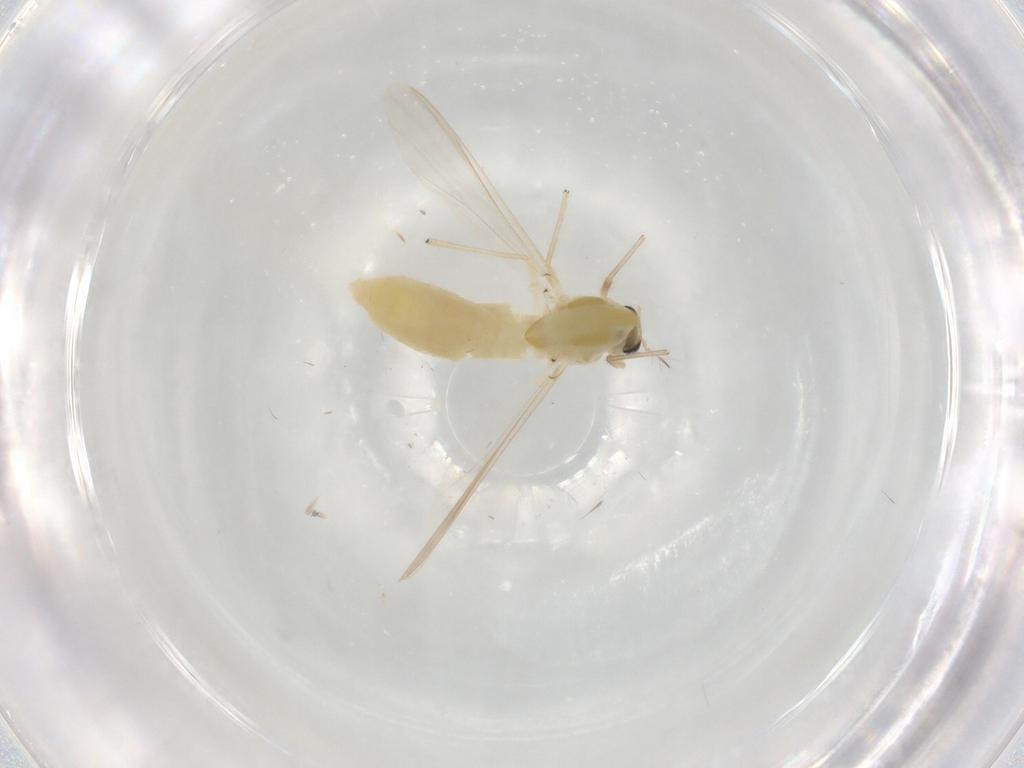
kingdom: Animalia
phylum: Arthropoda
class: Insecta
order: Diptera
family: Chironomidae
